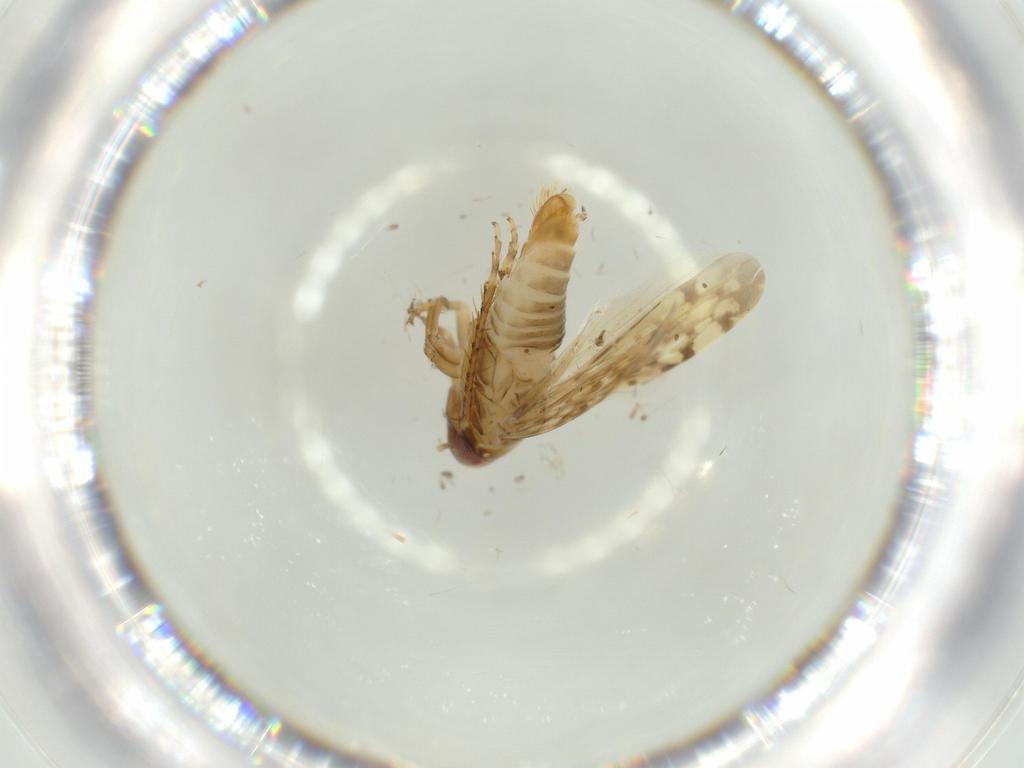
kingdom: Animalia
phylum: Arthropoda
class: Insecta
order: Hemiptera
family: Cicadellidae
